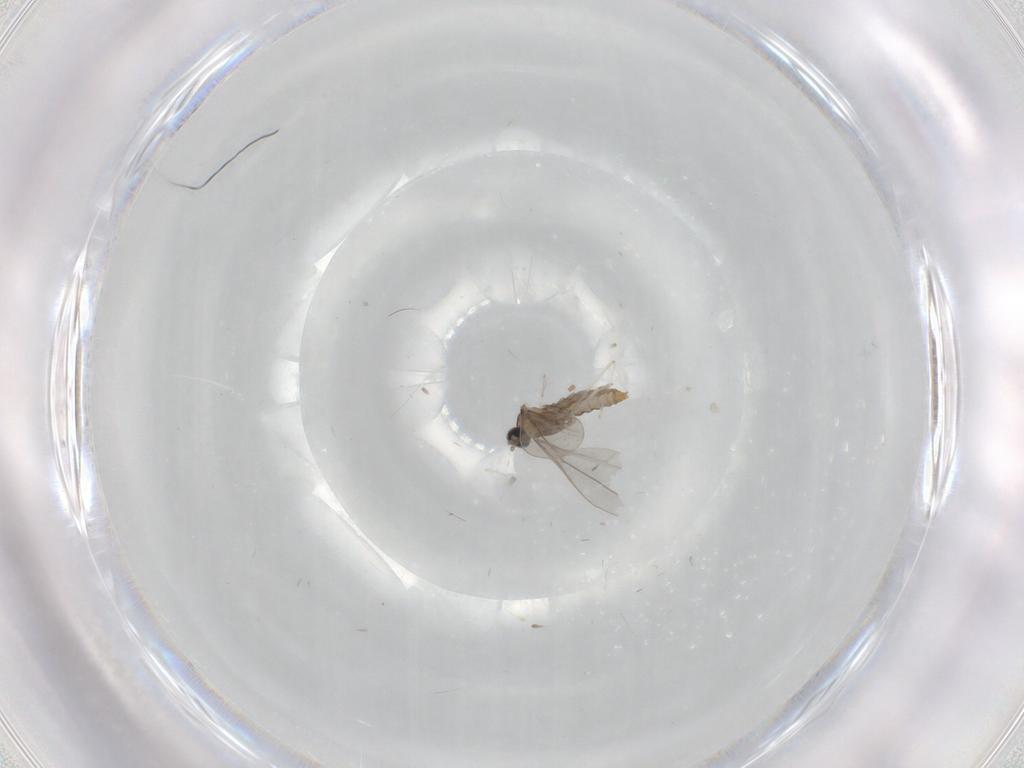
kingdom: Animalia
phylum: Arthropoda
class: Insecta
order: Diptera
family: Cecidomyiidae
